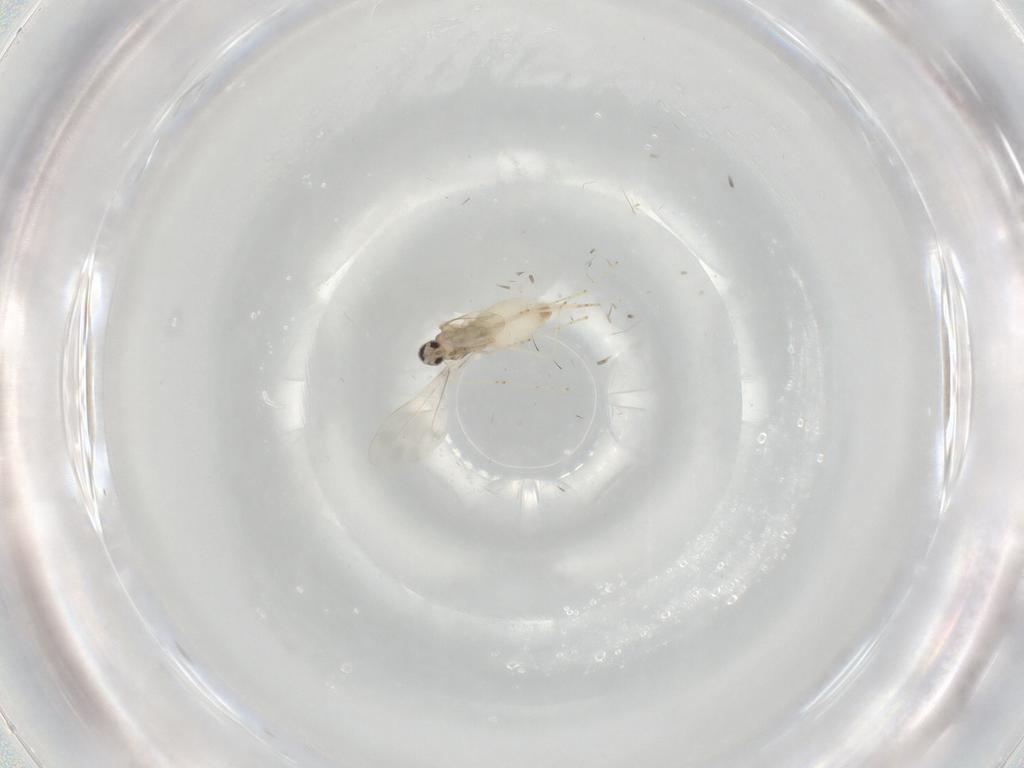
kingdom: Animalia
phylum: Arthropoda
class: Insecta
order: Diptera
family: Cecidomyiidae
